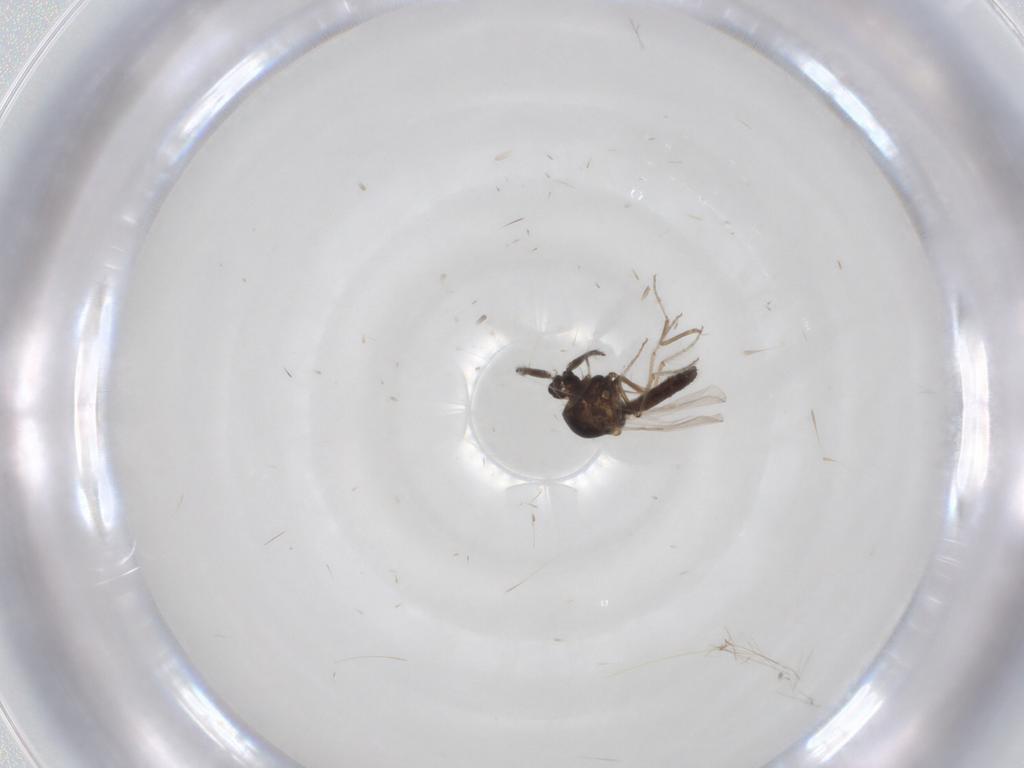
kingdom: Animalia
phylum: Arthropoda
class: Insecta
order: Diptera
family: Ceratopogonidae
